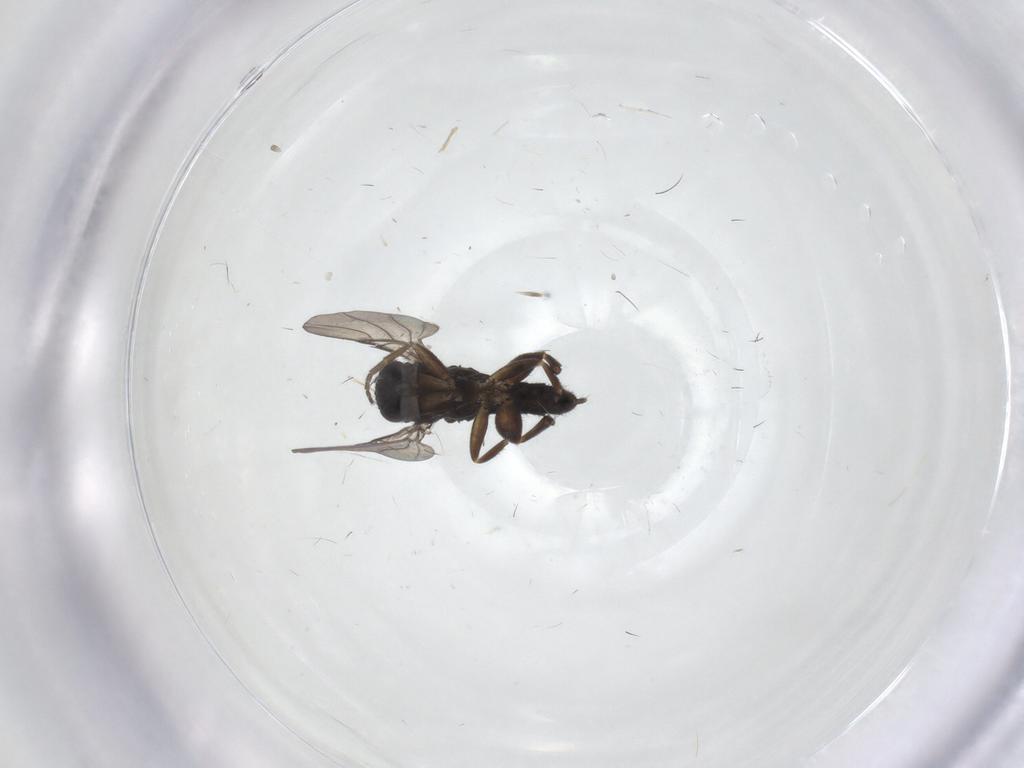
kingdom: Animalia
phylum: Arthropoda
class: Insecta
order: Diptera
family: Phoridae
